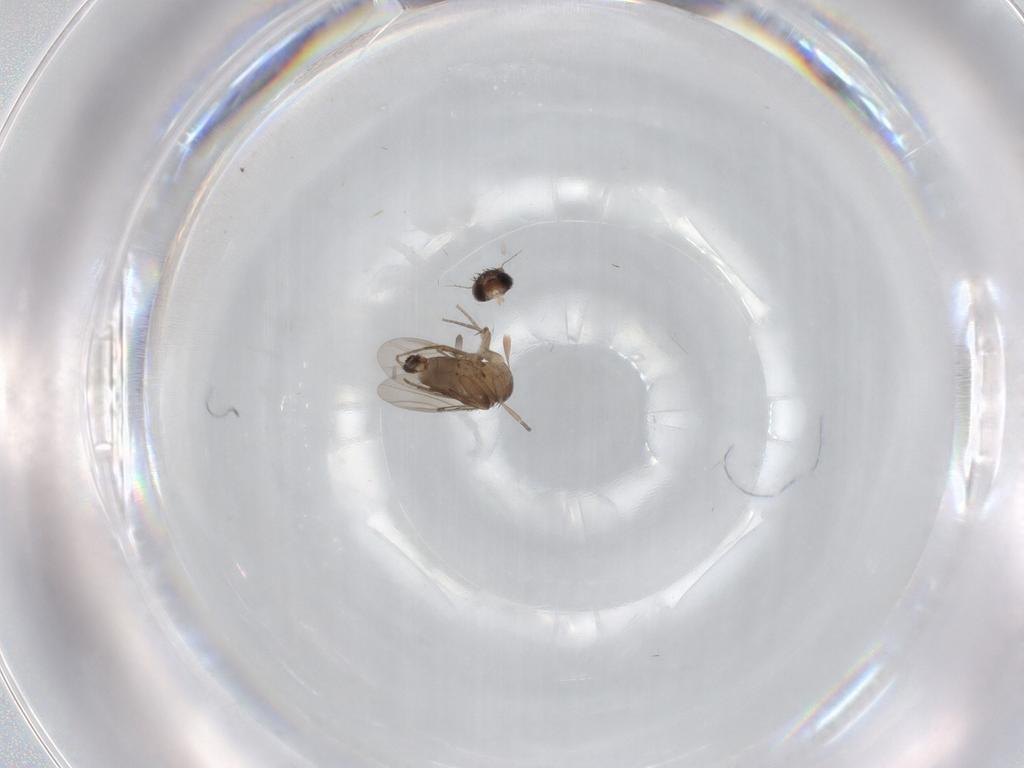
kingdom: Animalia
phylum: Arthropoda
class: Insecta
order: Diptera
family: Phoridae
